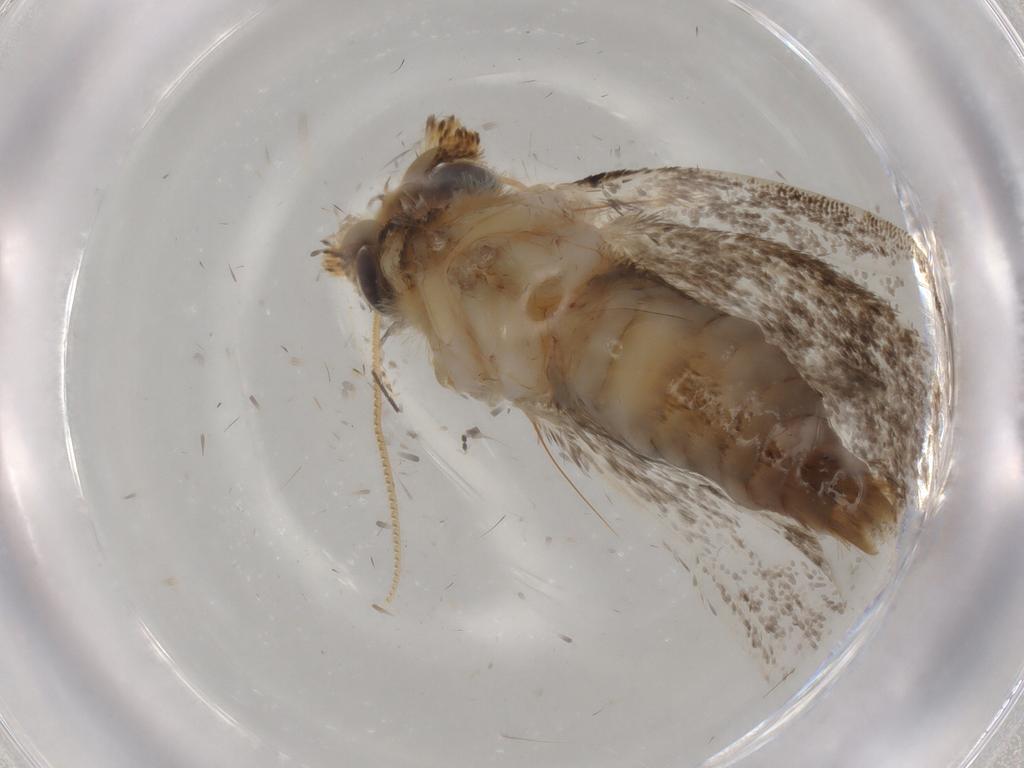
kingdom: Animalia
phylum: Arthropoda
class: Insecta
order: Lepidoptera
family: Tineidae
